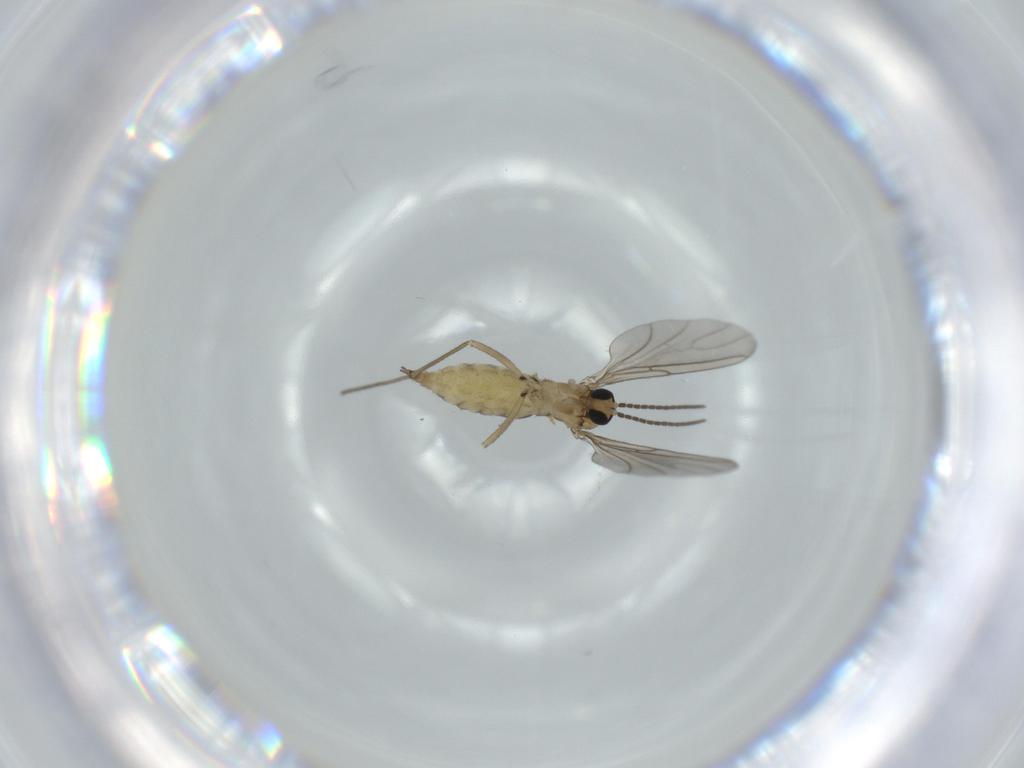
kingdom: Animalia
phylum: Arthropoda
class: Insecta
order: Diptera
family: Sciaridae
